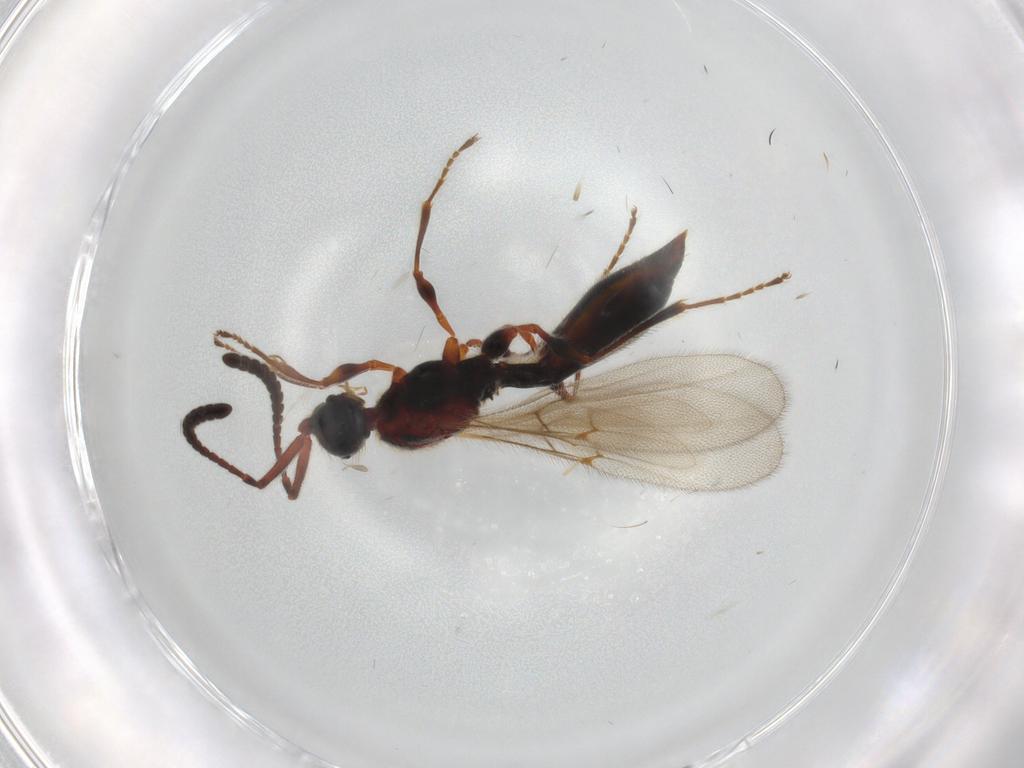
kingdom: Animalia
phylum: Arthropoda
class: Insecta
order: Hymenoptera
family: Diapriidae
